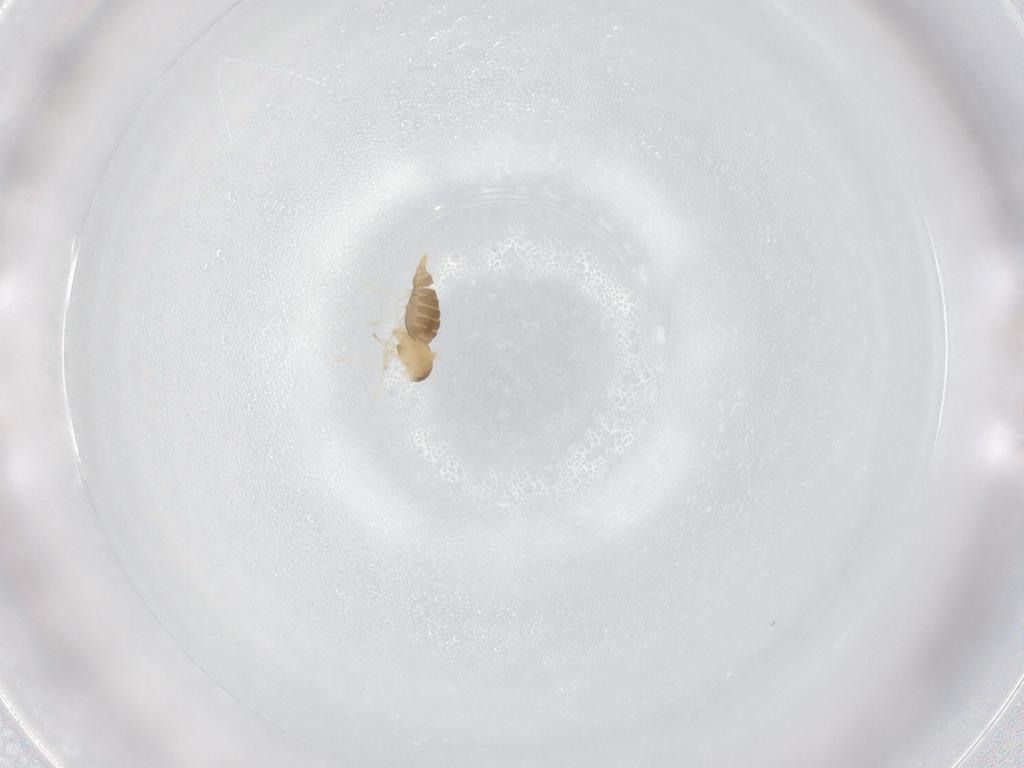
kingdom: Animalia
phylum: Arthropoda
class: Insecta
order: Diptera
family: Cecidomyiidae
